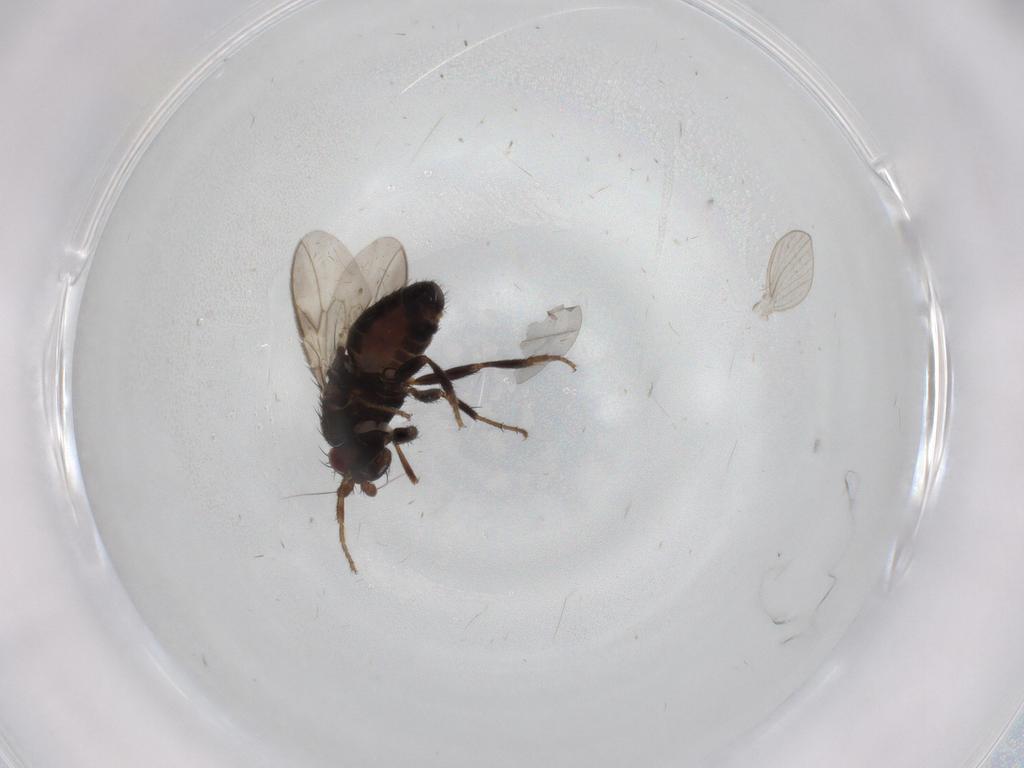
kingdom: Animalia
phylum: Arthropoda
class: Insecta
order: Diptera
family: Sphaeroceridae
